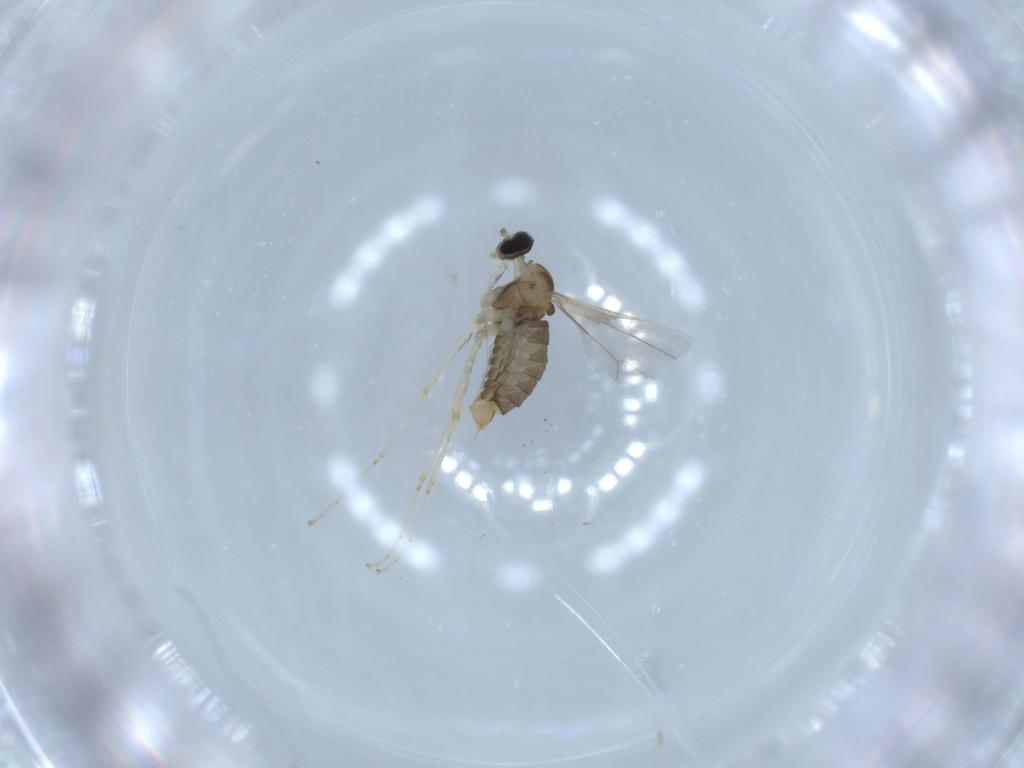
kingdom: Animalia
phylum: Arthropoda
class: Insecta
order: Diptera
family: Cecidomyiidae
